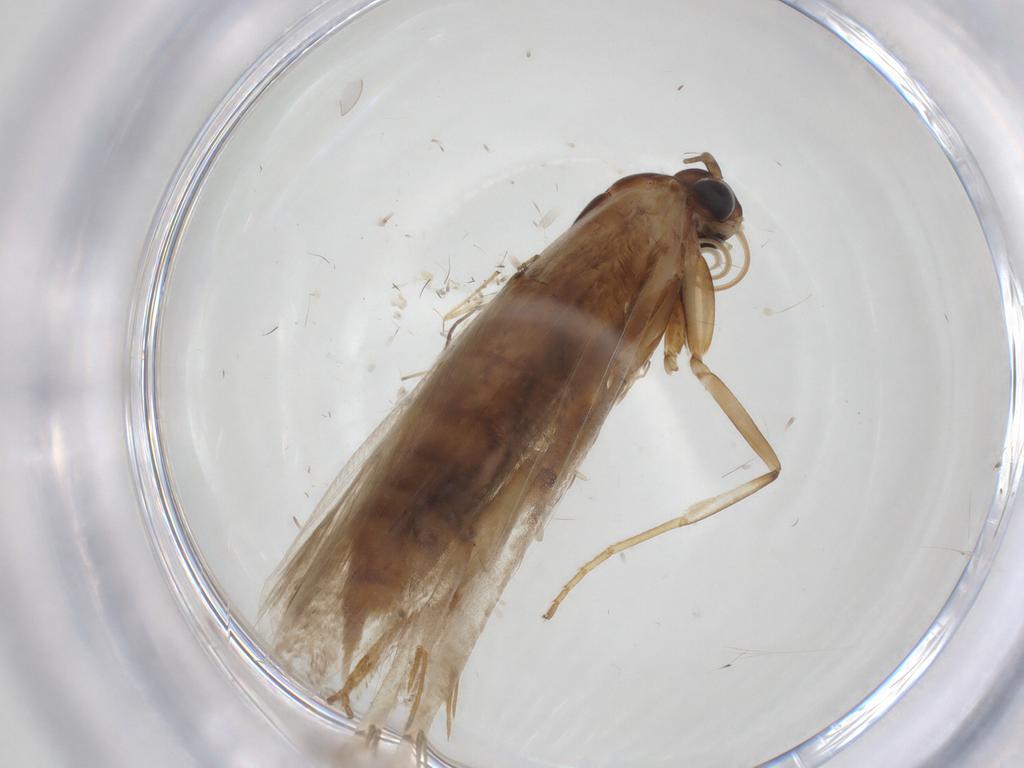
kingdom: Animalia
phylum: Arthropoda
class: Insecta
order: Lepidoptera
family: Blastobasidae
